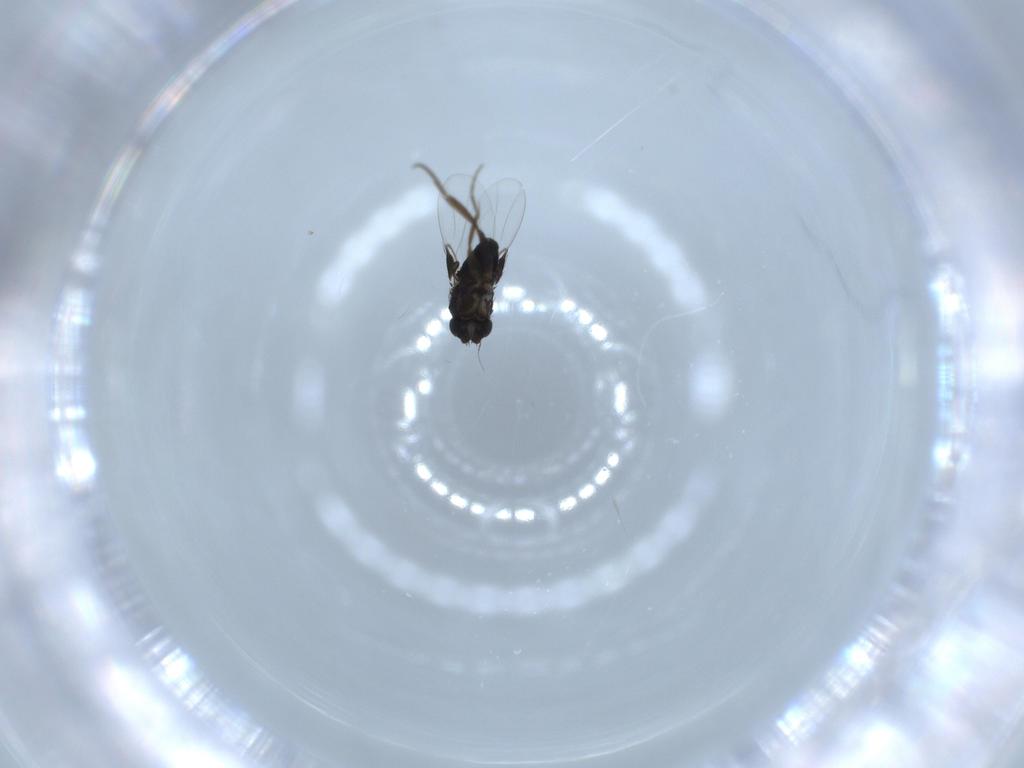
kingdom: Animalia
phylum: Arthropoda
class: Insecta
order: Diptera
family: Phoridae
